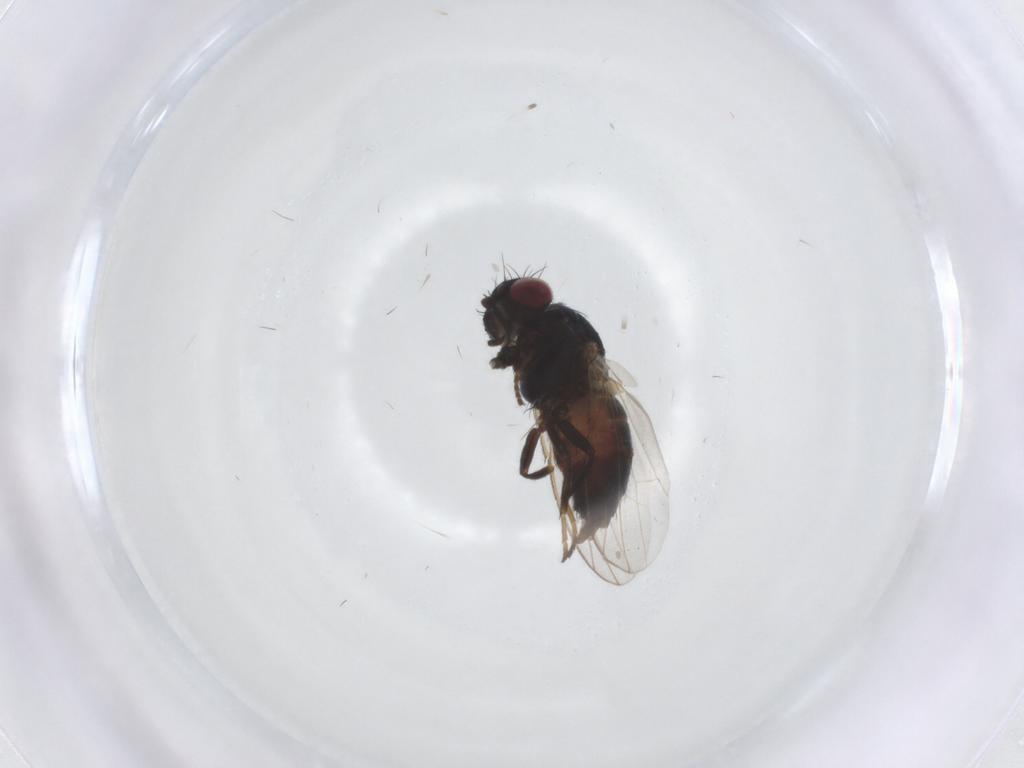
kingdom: Animalia
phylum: Arthropoda
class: Insecta
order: Diptera
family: Carnidae
